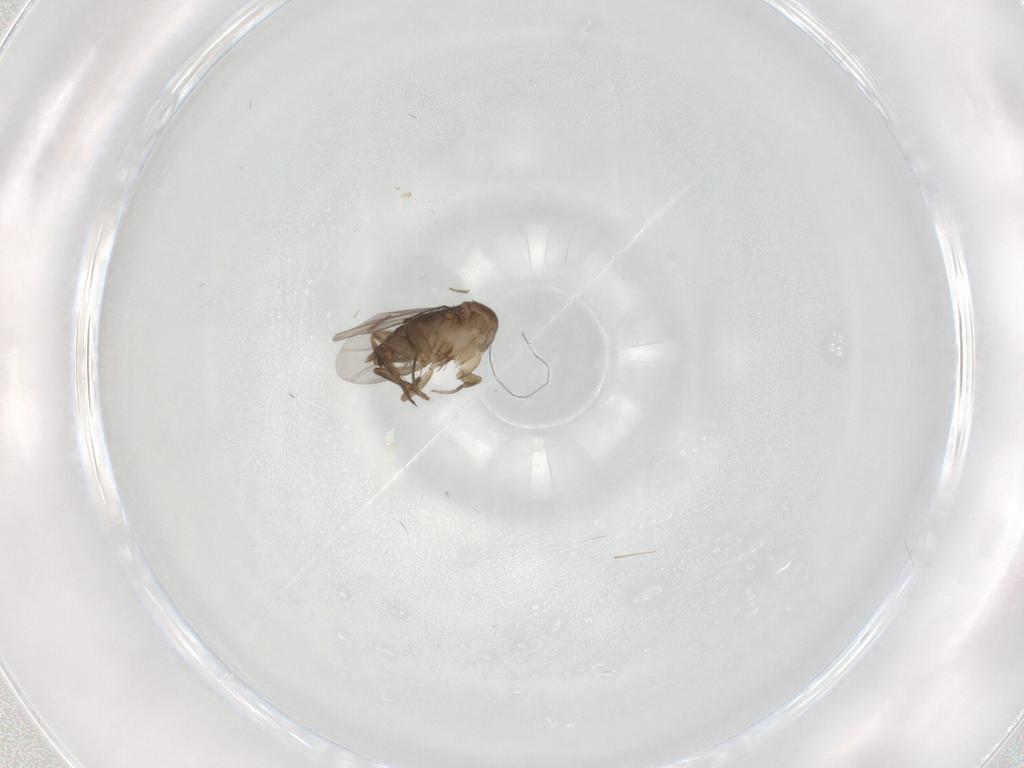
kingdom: Animalia
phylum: Arthropoda
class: Insecta
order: Diptera
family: Phoridae
